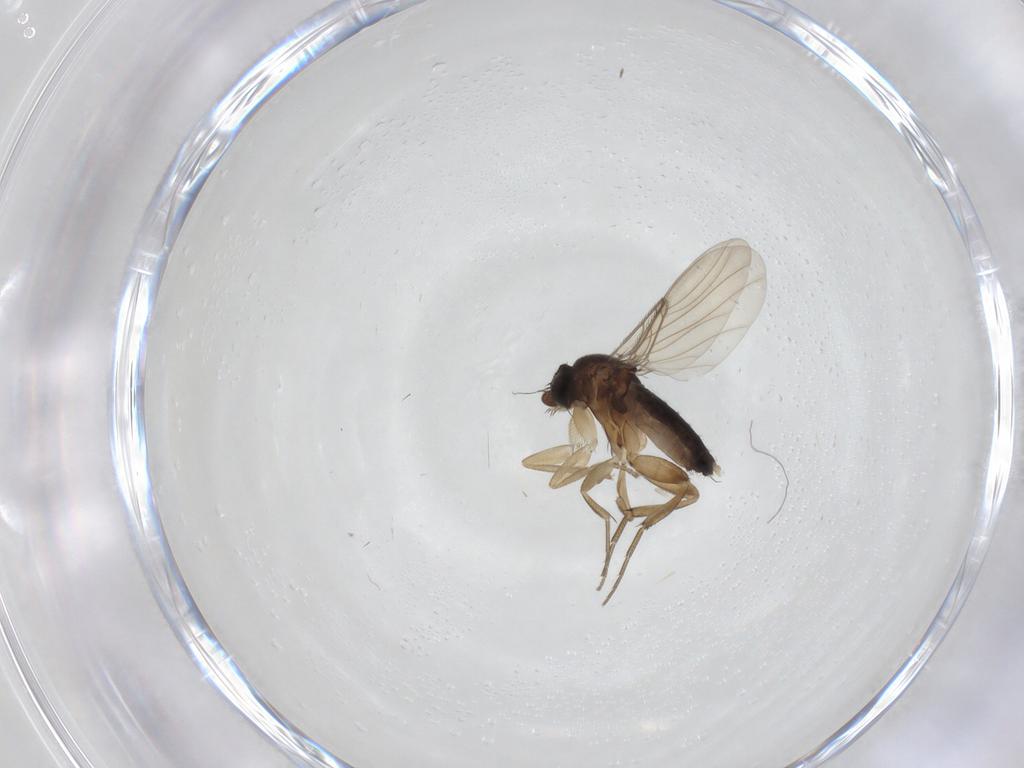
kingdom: Animalia
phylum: Arthropoda
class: Insecta
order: Diptera
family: Phoridae
